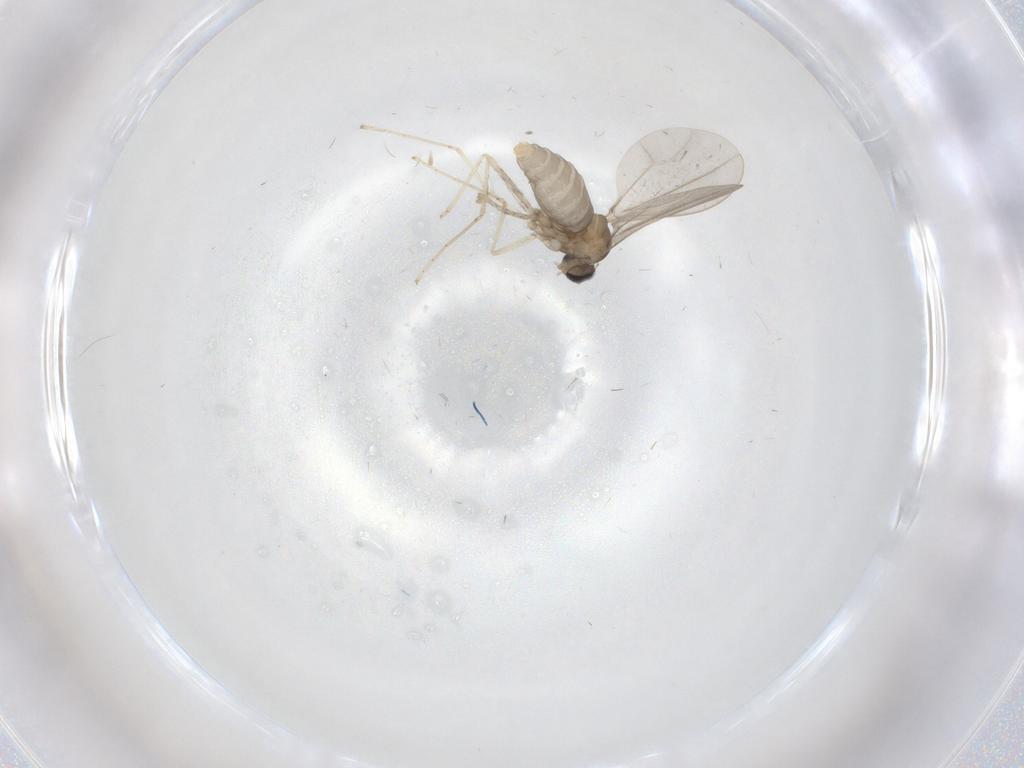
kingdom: Animalia
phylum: Arthropoda
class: Insecta
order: Diptera
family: Cecidomyiidae
